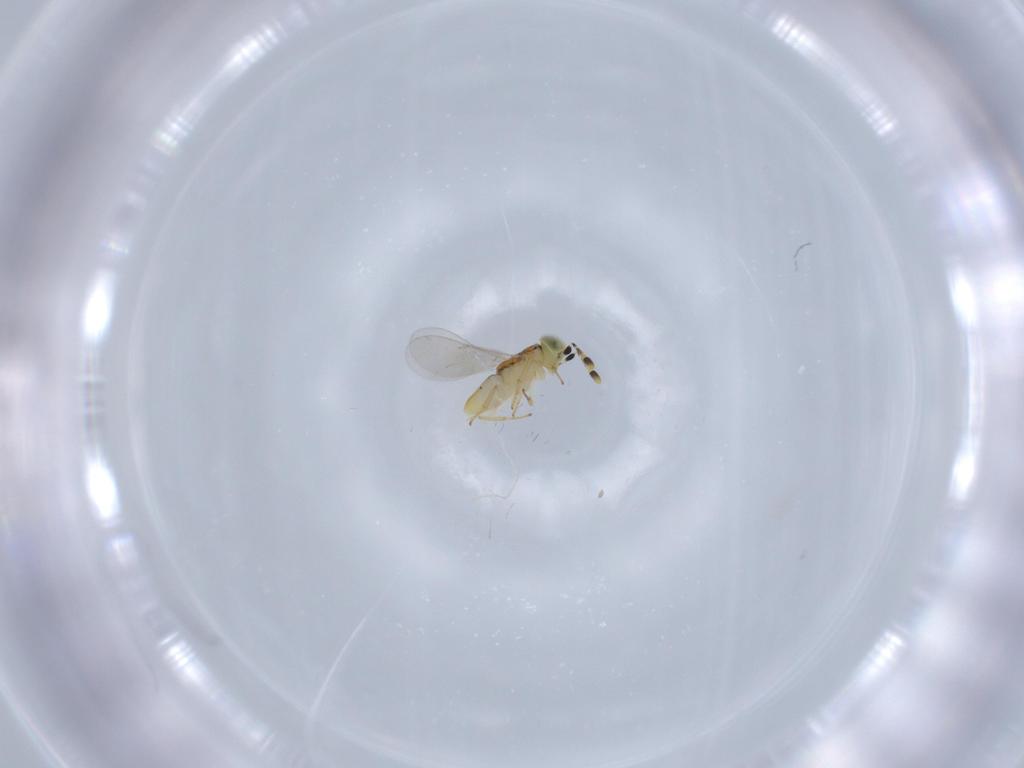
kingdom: Animalia
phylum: Arthropoda
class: Insecta
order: Hymenoptera
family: Encyrtidae
